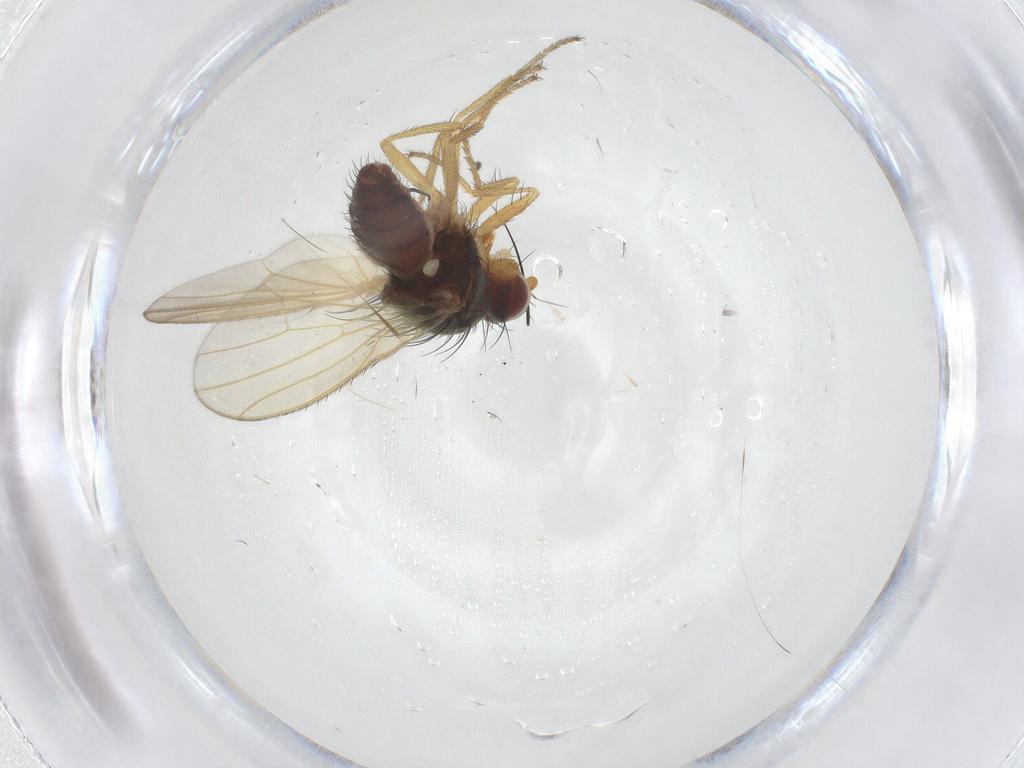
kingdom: Animalia
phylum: Arthropoda
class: Insecta
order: Diptera
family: Heleomyzidae
